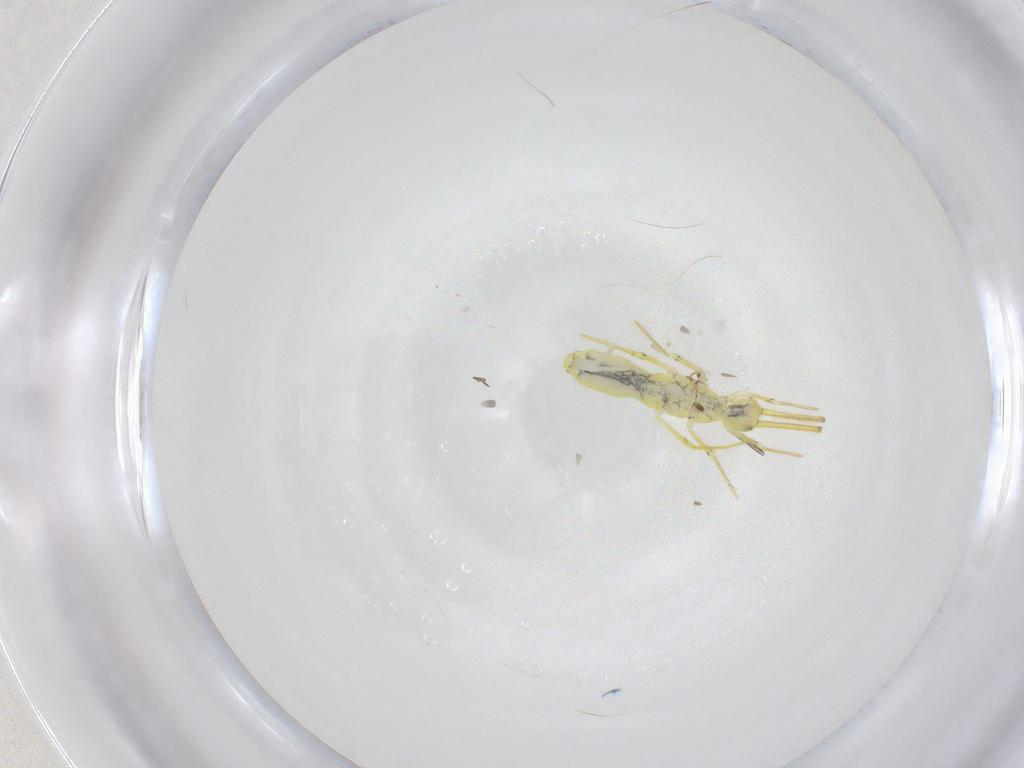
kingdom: Animalia
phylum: Arthropoda
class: Collembola
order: Entomobryomorpha
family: Entomobryidae
